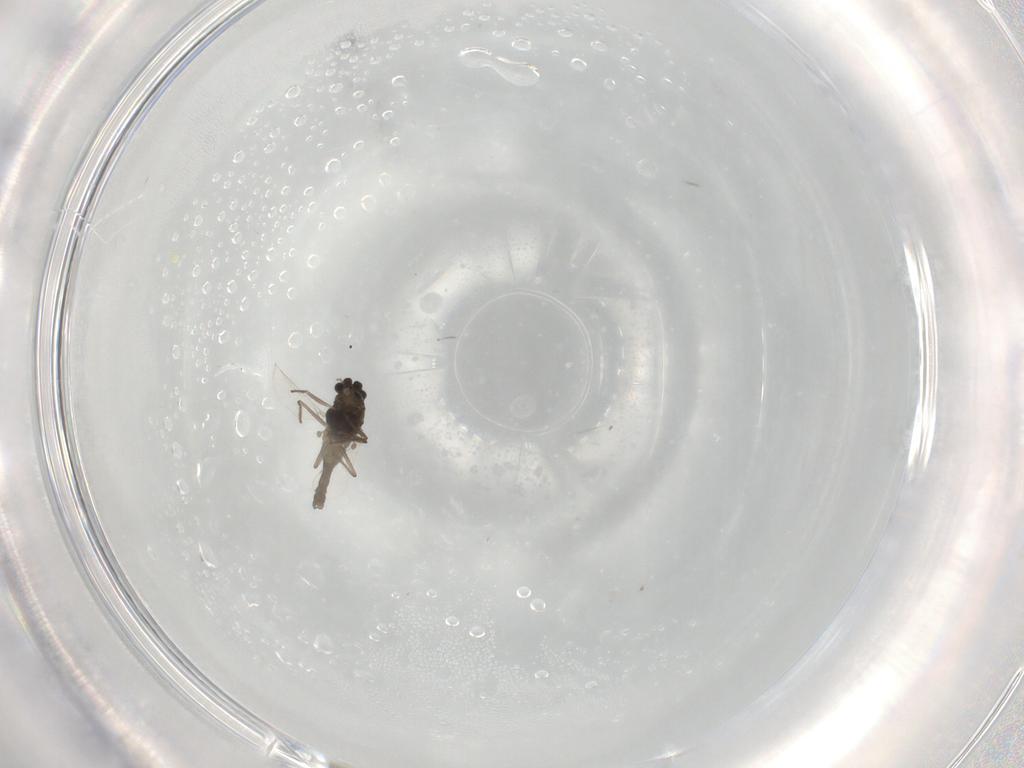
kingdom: Animalia
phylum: Arthropoda
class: Insecta
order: Diptera
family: Chironomidae
